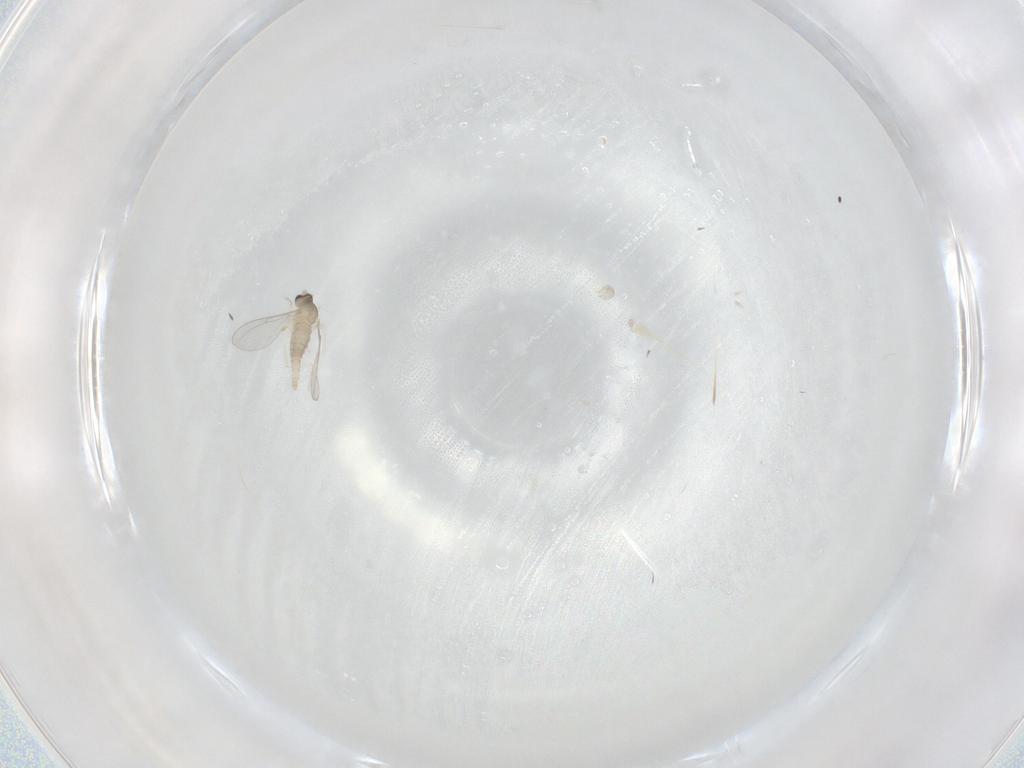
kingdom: Animalia
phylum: Arthropoda
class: Insecta
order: Diptera
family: Cecidomyiidae
